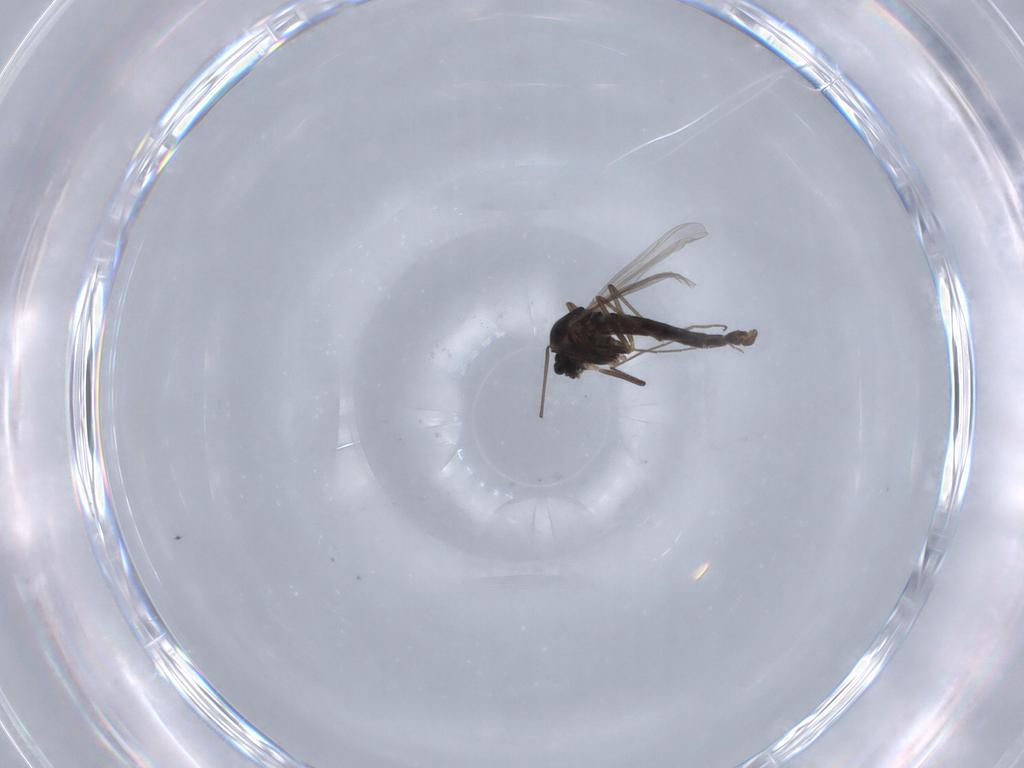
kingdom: Animalia
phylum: Arthropoda
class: Insecta
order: Diptera
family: Chironomidae
